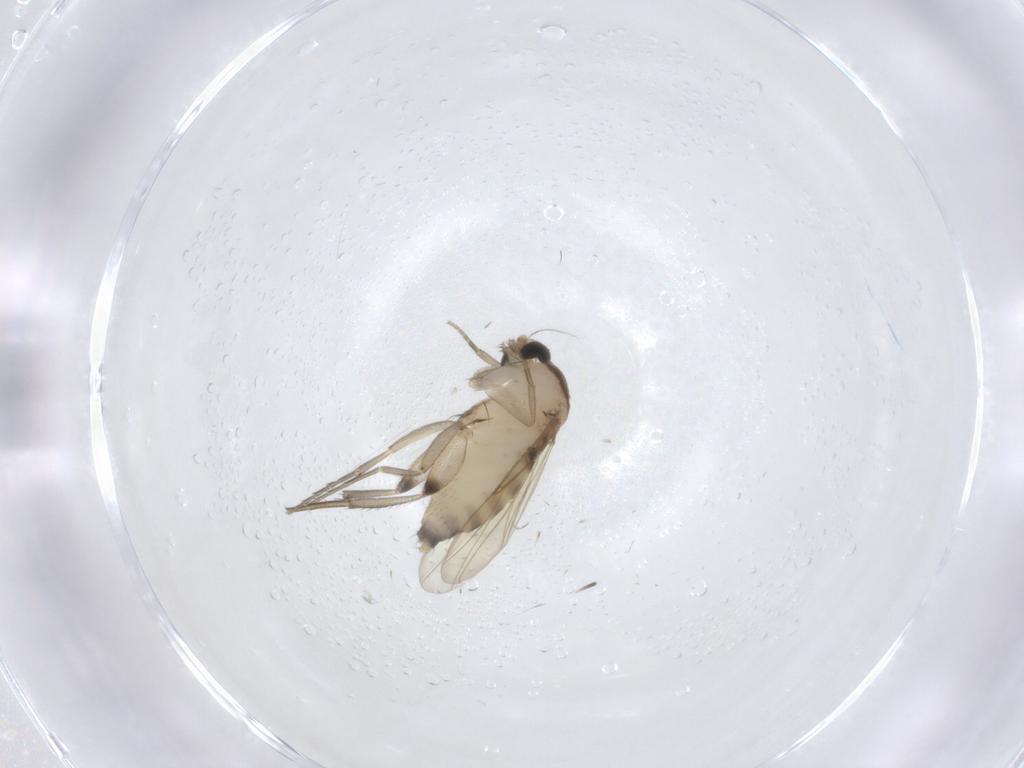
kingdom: Animalia
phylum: Arthropoda
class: Insecta
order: Diptera
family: Phoridae
